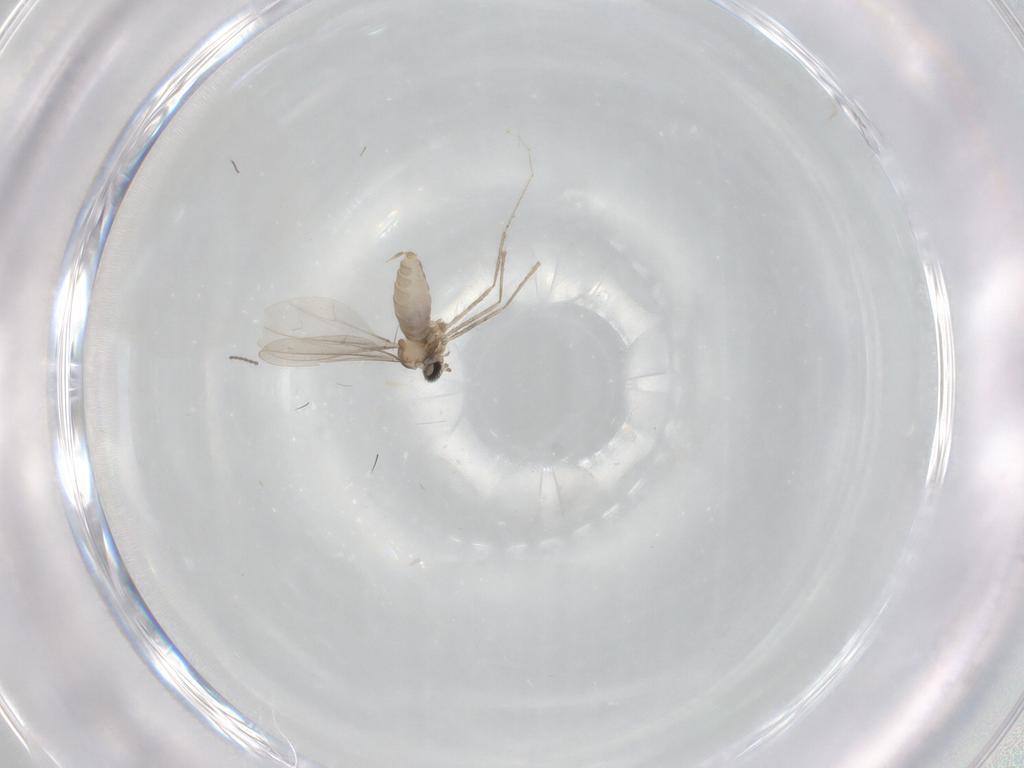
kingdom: Animalia
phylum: Arthropoda
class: Insecta
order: Diptera
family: Cecidomyiidae
